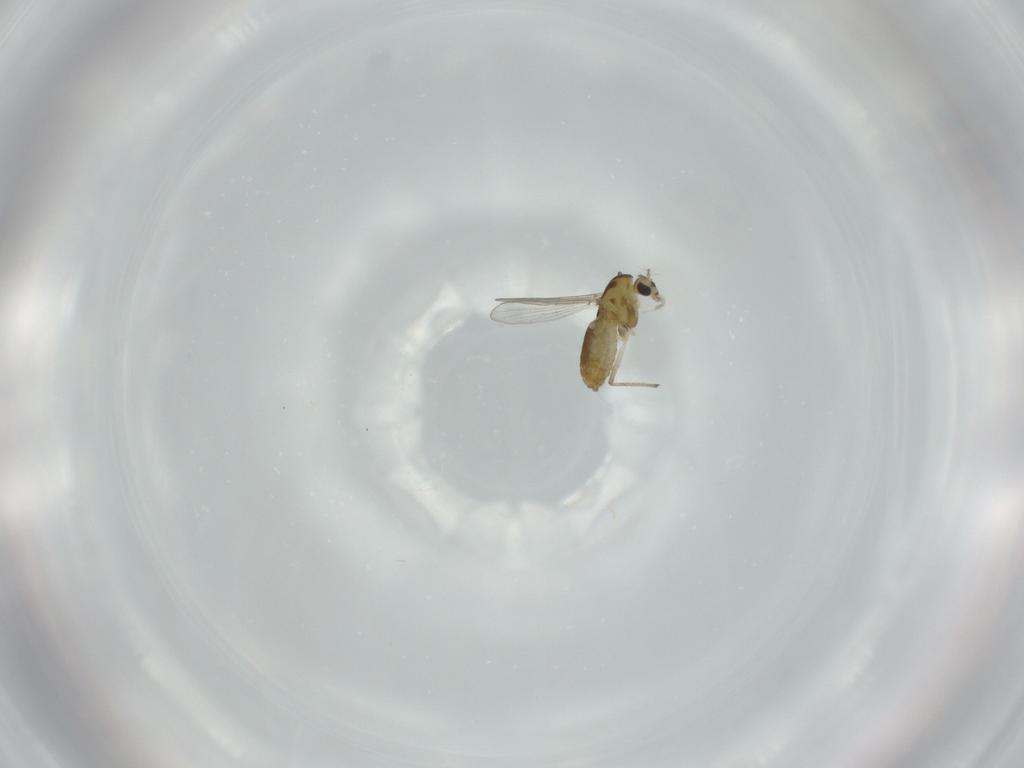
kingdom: Animalia
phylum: Arthropoda
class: Insecta
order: Diptera
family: Chironomidae
